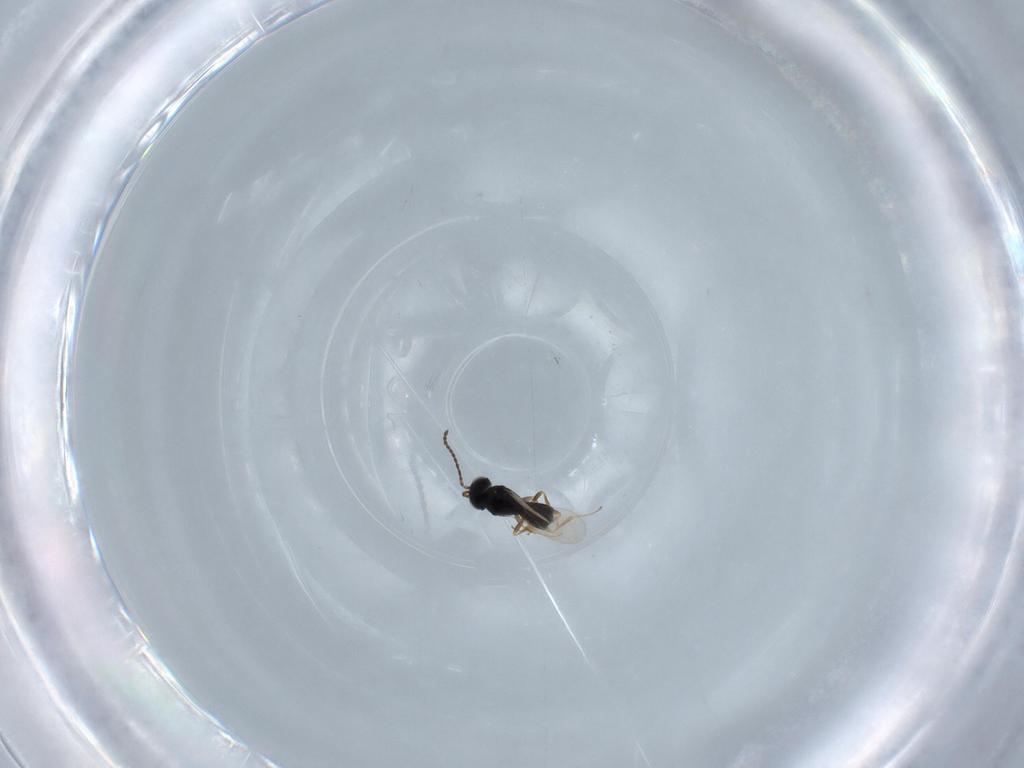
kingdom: Animalia
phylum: Arthropoda
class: Insecta
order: Hymenoptera
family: Scelionidae
